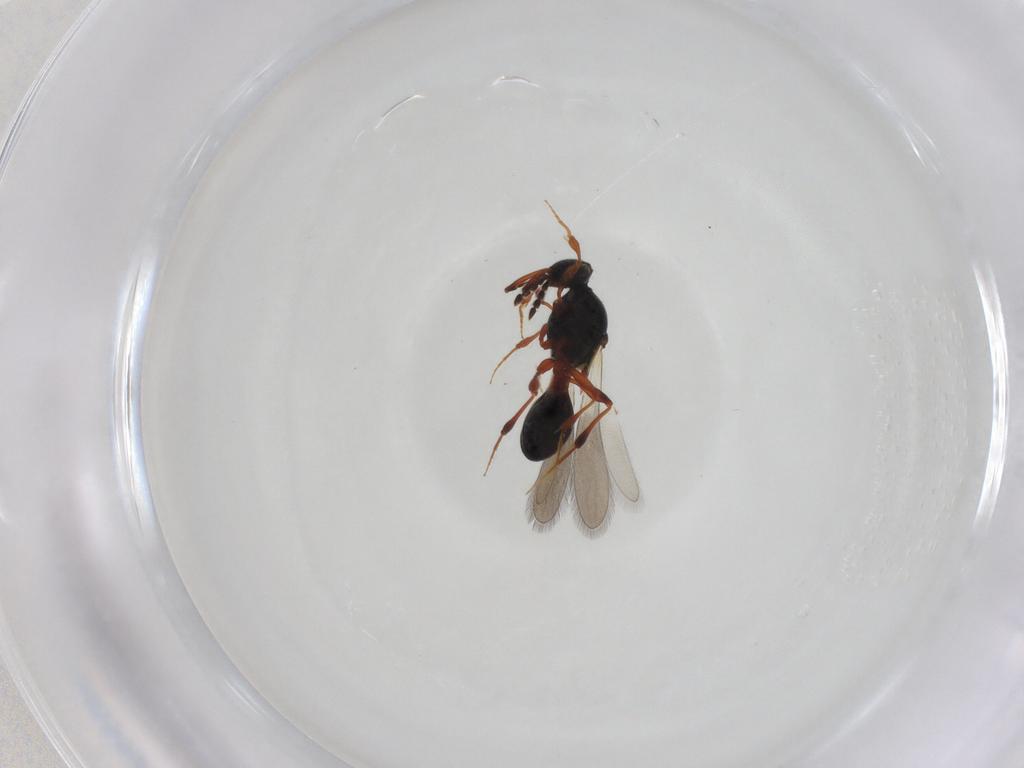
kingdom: Animalia
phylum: Arthropoda
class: Insecta
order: Hymenoptera
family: Platygastridae
